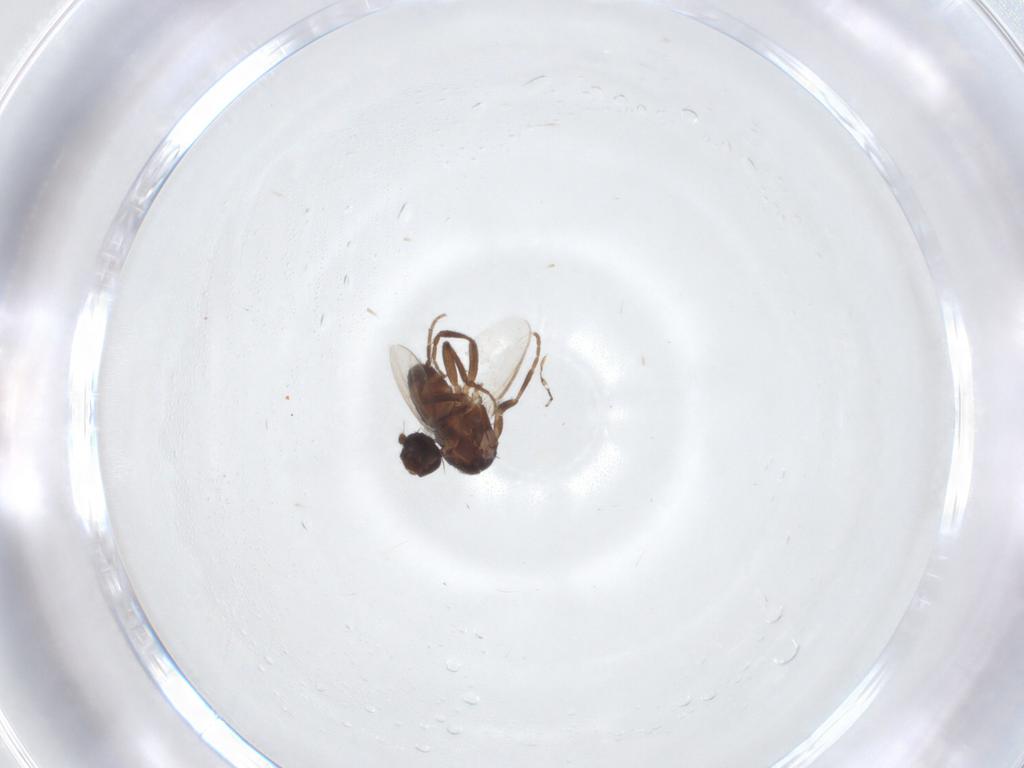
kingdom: Animalia
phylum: Arthropoda
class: Insecta
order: Diptera
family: Sphaeroceridae
